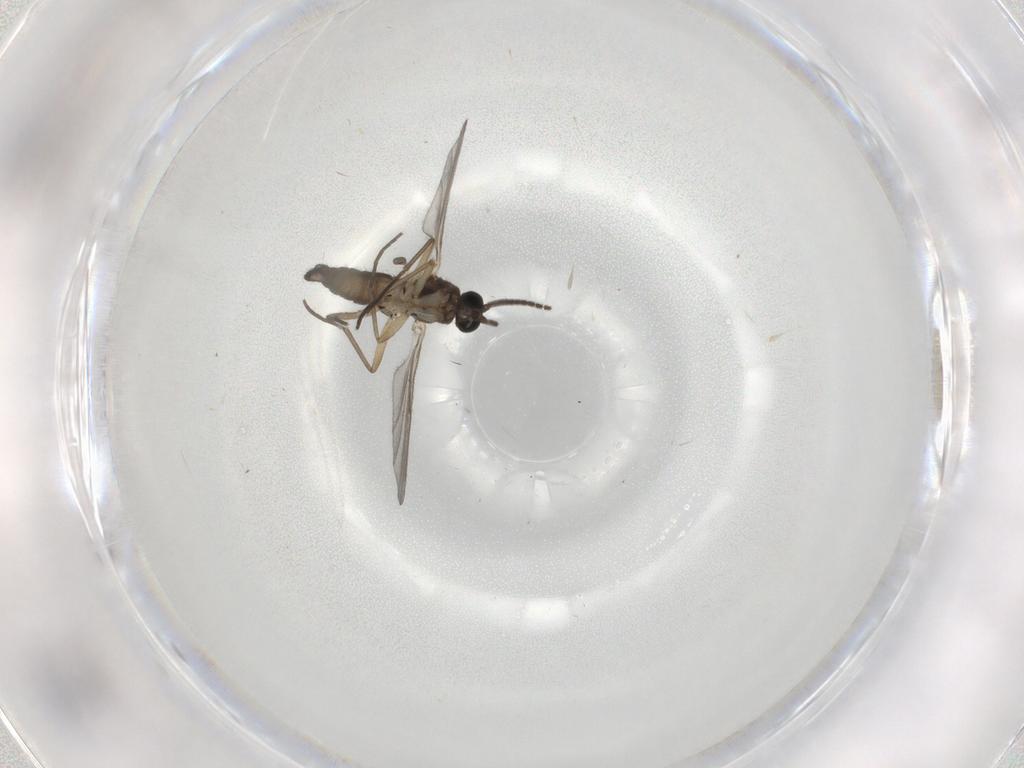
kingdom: Animalia
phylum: Arthropoda
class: Insecta
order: Diptera
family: Sciaridae
